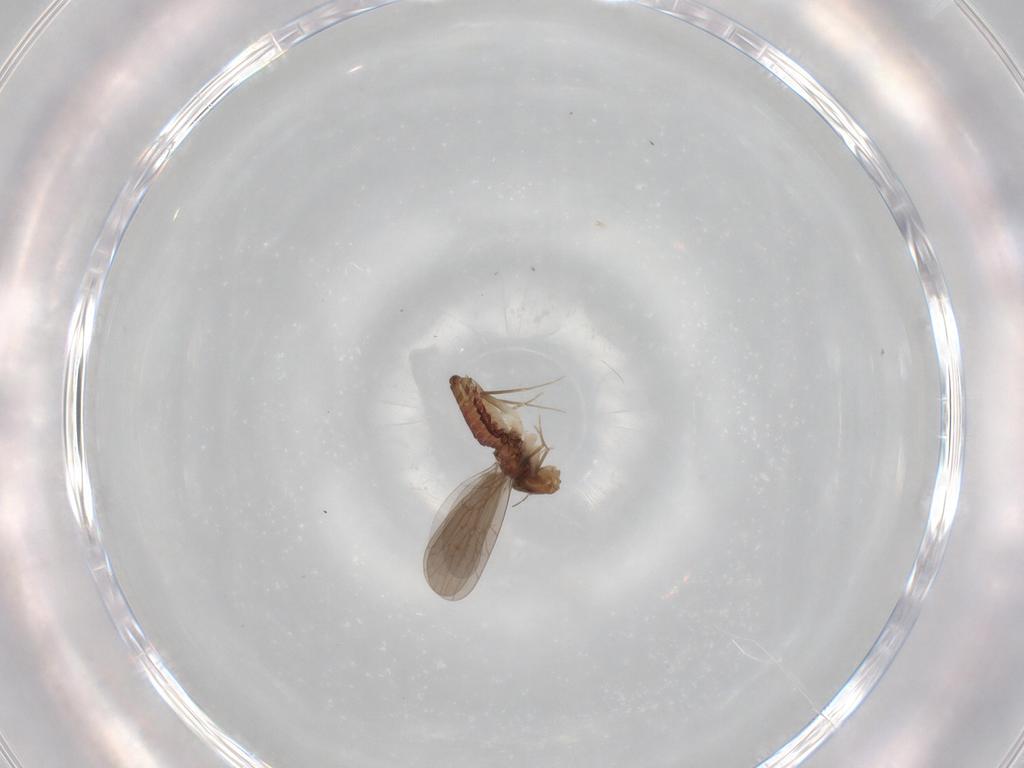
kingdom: Animalia
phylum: Arthropoda
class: Insecta
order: Psocodea
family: Lepidopsocidae
